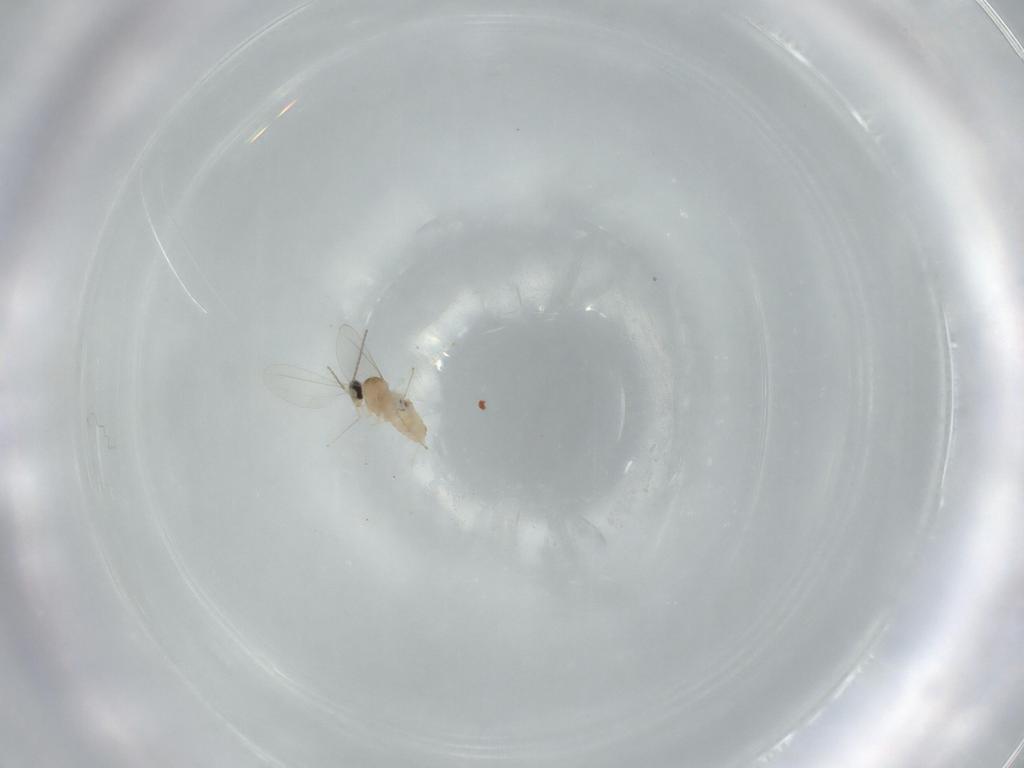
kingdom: Animalia
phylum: Arthropoda
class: Insecta
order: Diptera
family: Cecidomyiidae
